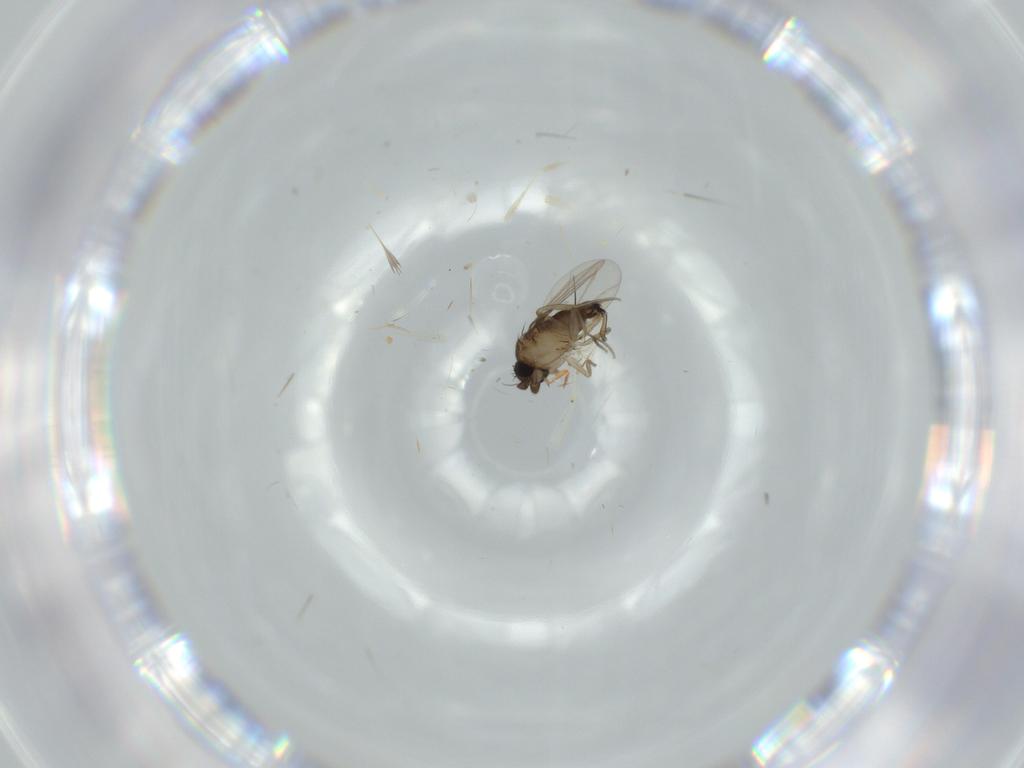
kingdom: Animalia
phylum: Arthropoda
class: Insecta
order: Diptera
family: Phoridae
